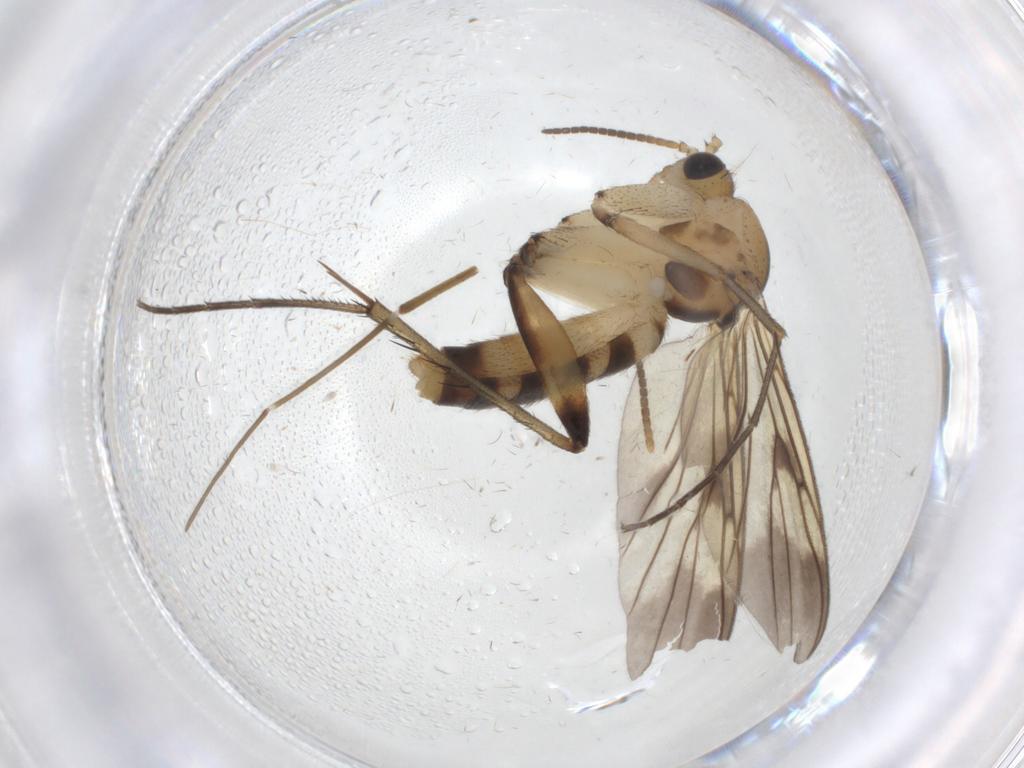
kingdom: Animalia
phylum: Arthropoda
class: Insecta
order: Diptera
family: Mycetophilidae
